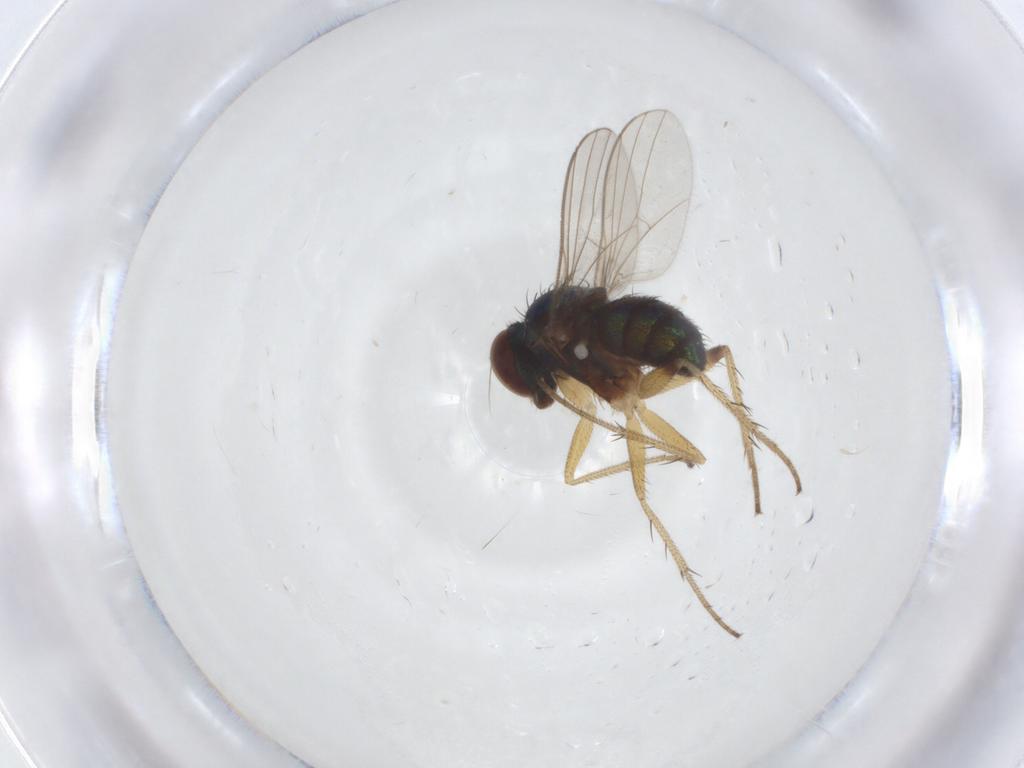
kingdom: Animalia
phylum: Arthropoda
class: Insecta
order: Diptera
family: Dolichopodidae
